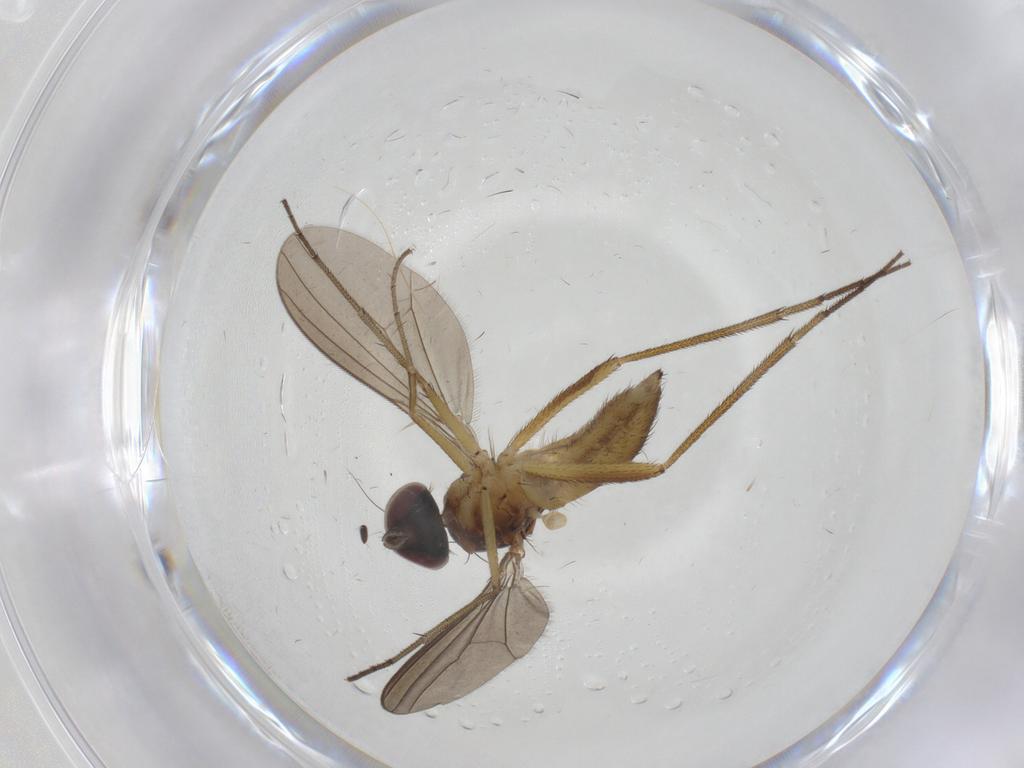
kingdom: Animalia
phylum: Arthropoda
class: Insecta
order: Diptera
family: Dolichopodidae
